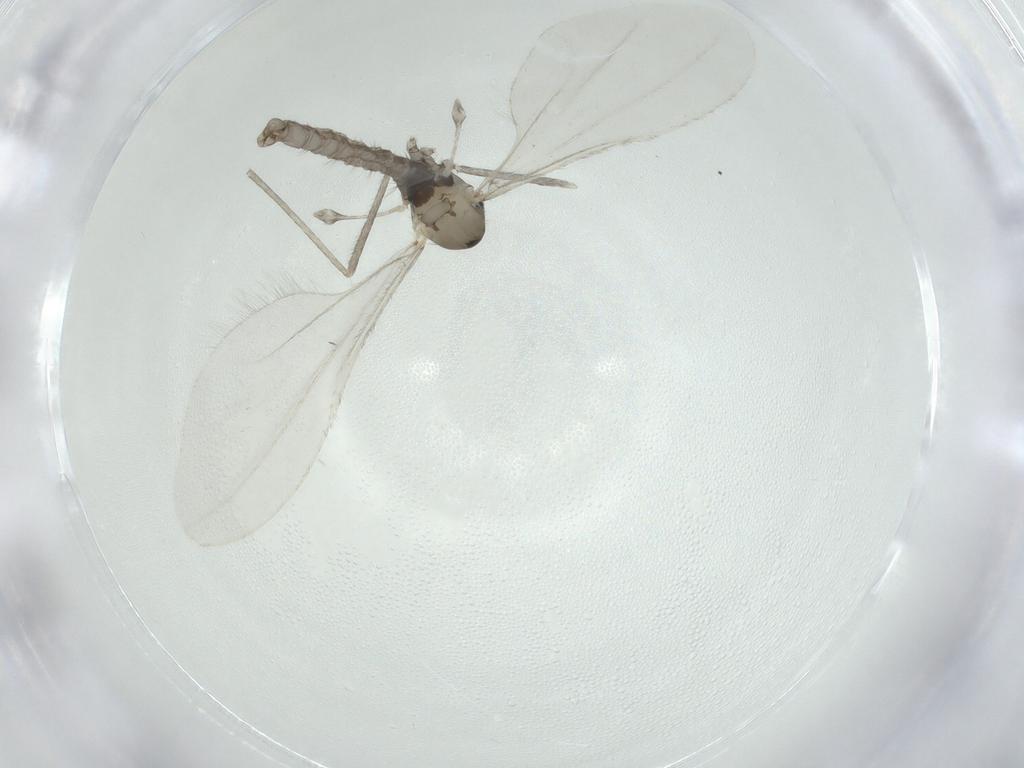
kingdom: Animalia
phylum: Arthropoda
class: Insecta
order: Diptera
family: Cecidomyiidae
